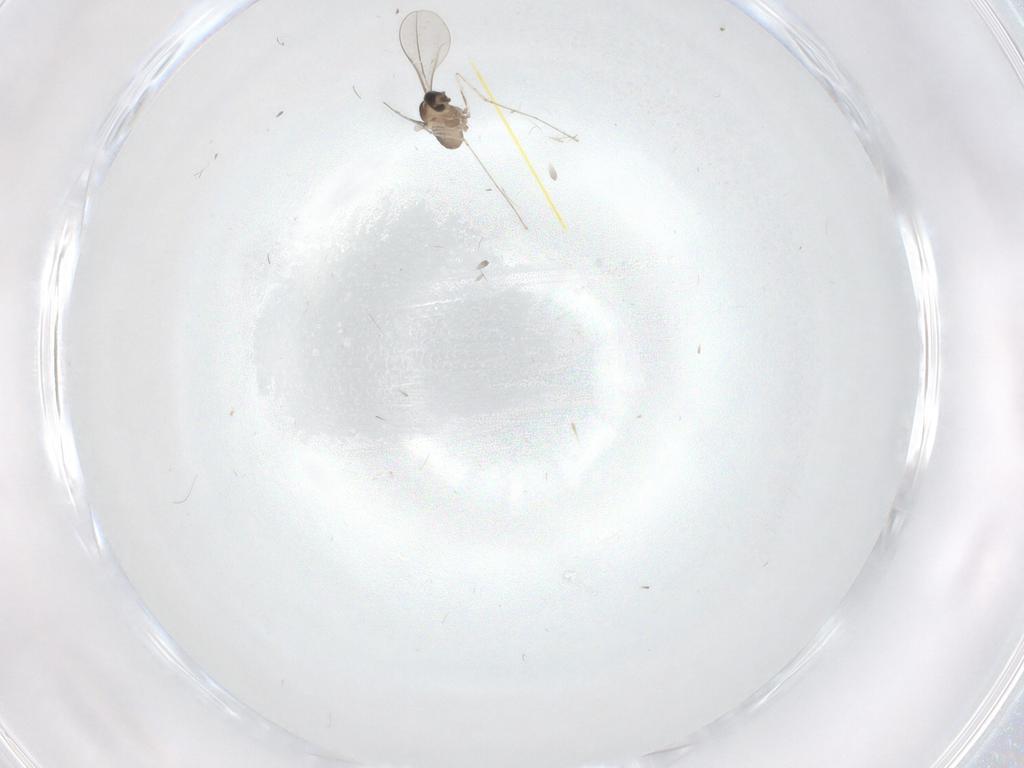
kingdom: Animalia
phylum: Arthropoda
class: Insecta
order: Diptera
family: Cecidomyiidae
